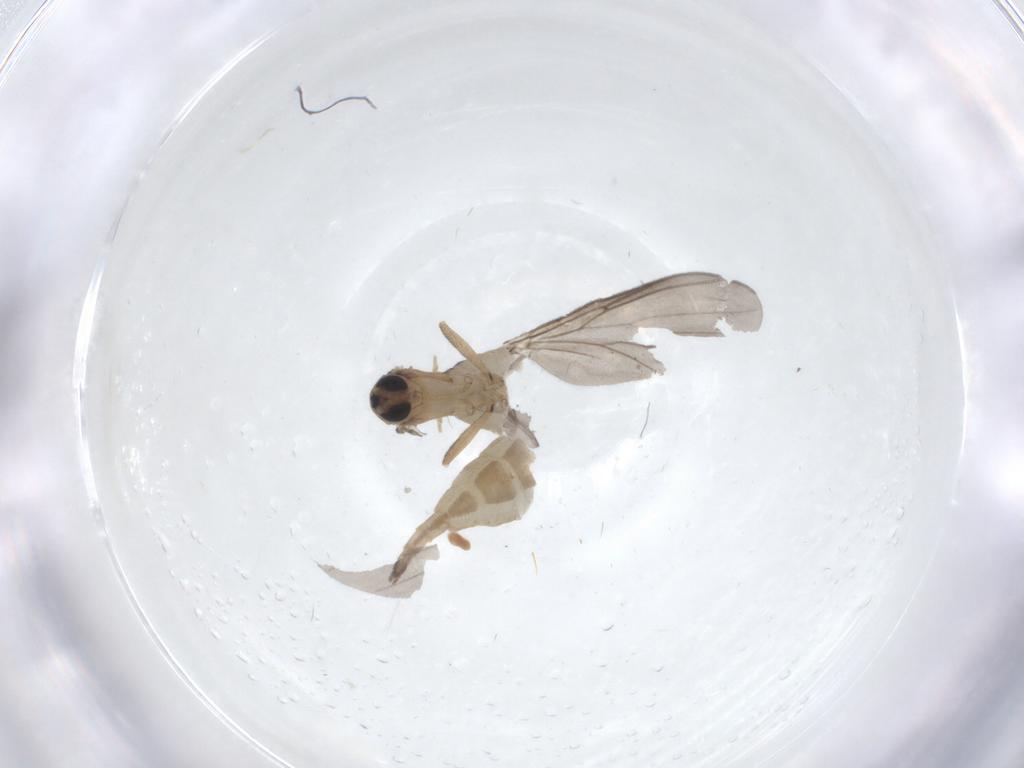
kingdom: Animalia
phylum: Arthropoda
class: Insecta
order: Diptera
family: Sciaridae
